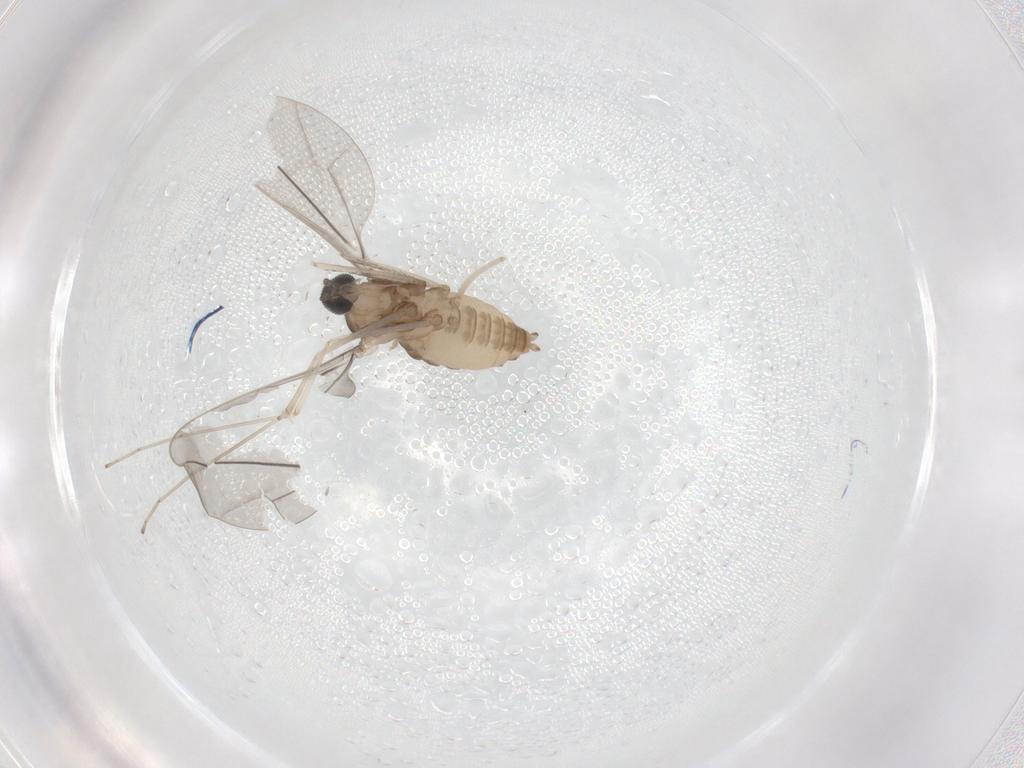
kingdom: Animalia
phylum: Arthropoda
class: Insecta
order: Diptera
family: Cecidomyiidae
